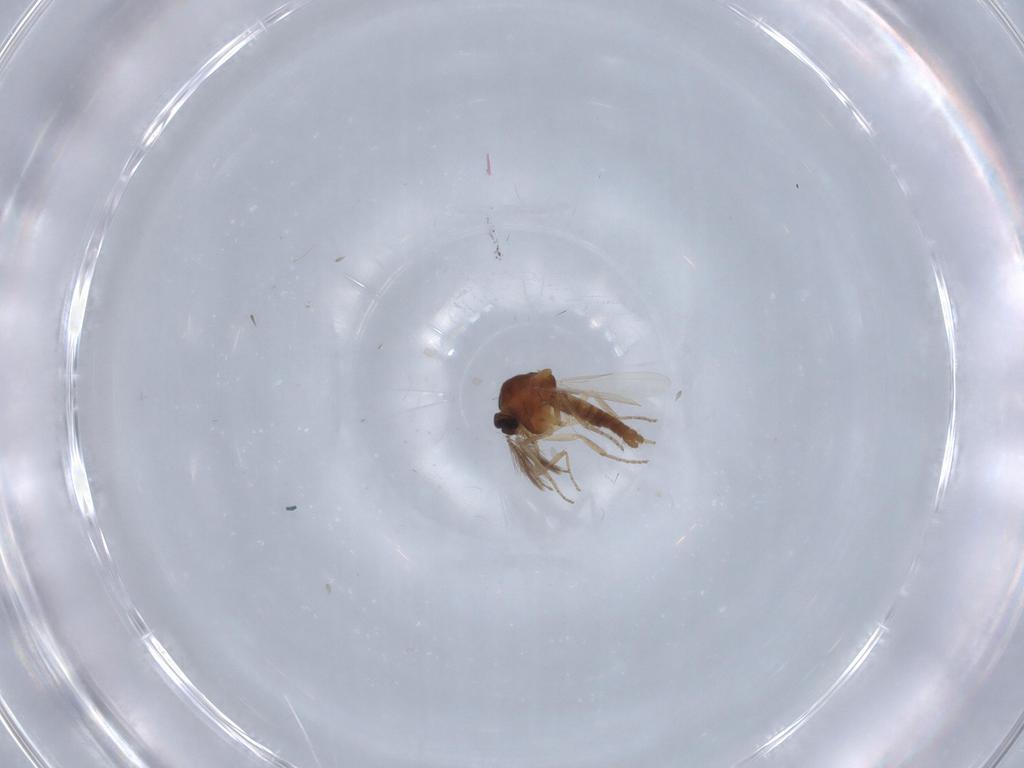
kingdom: Animalia
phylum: Arthropoda
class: Insecta
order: Diptera
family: Ceratopogonidae
